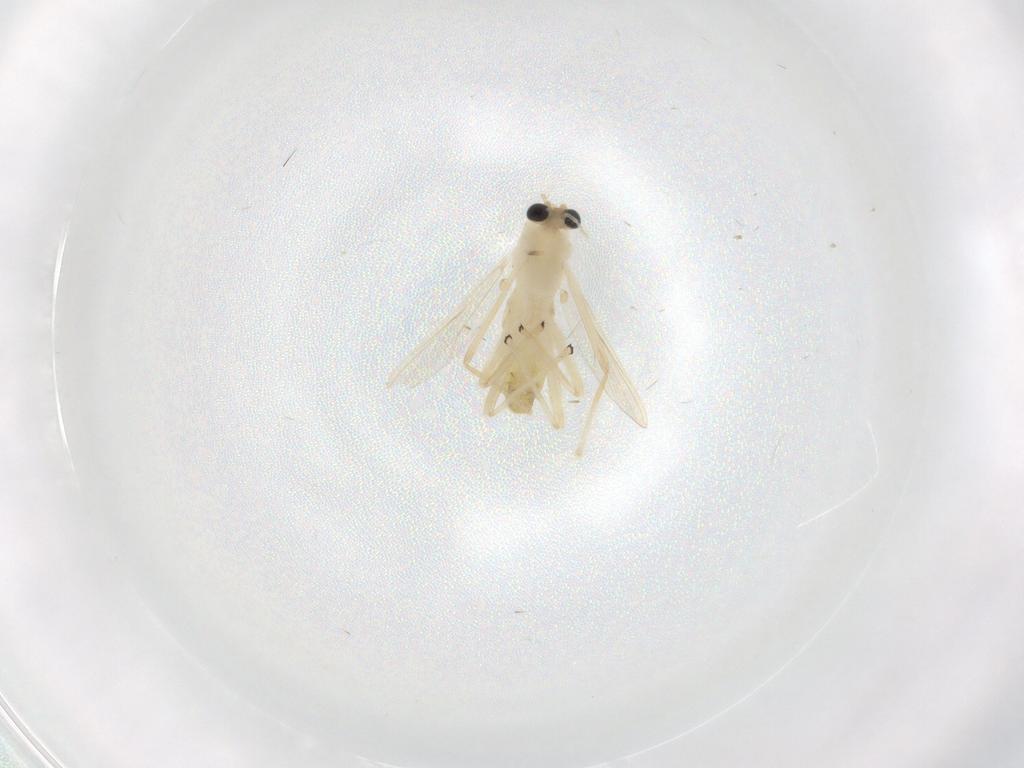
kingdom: Animalia
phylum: Arthropoda
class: Insecta
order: Diptera
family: Chironomidae
